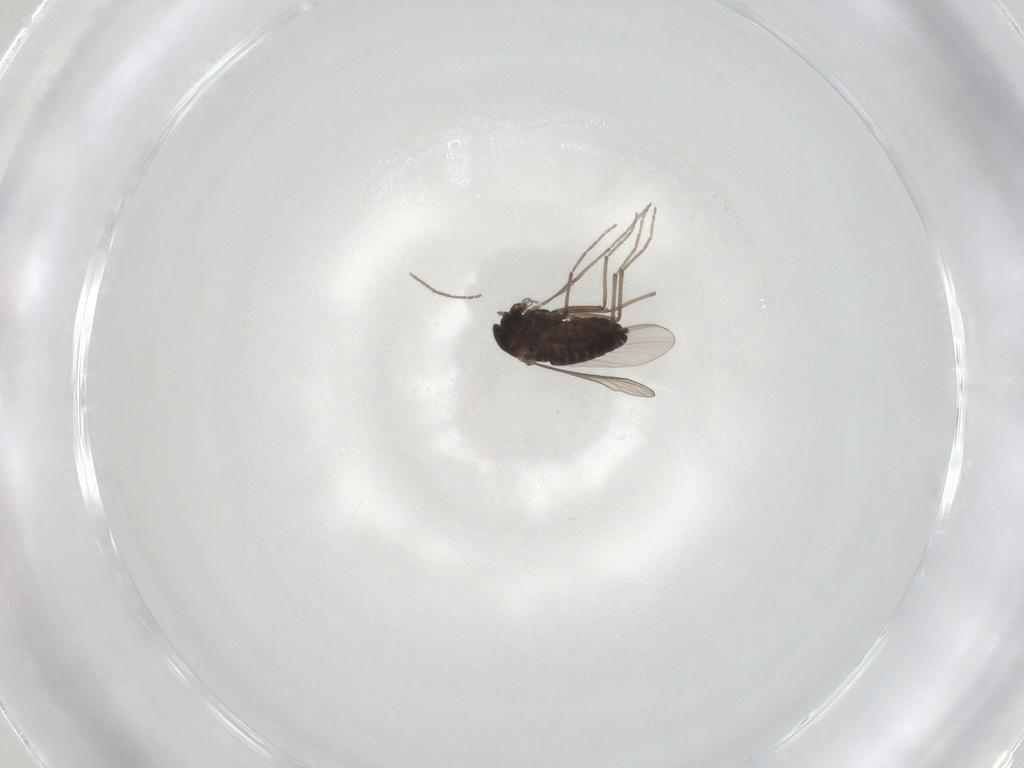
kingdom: Animalia
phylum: Arthropoda
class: Insecta
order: Diptera
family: Chironomidae
